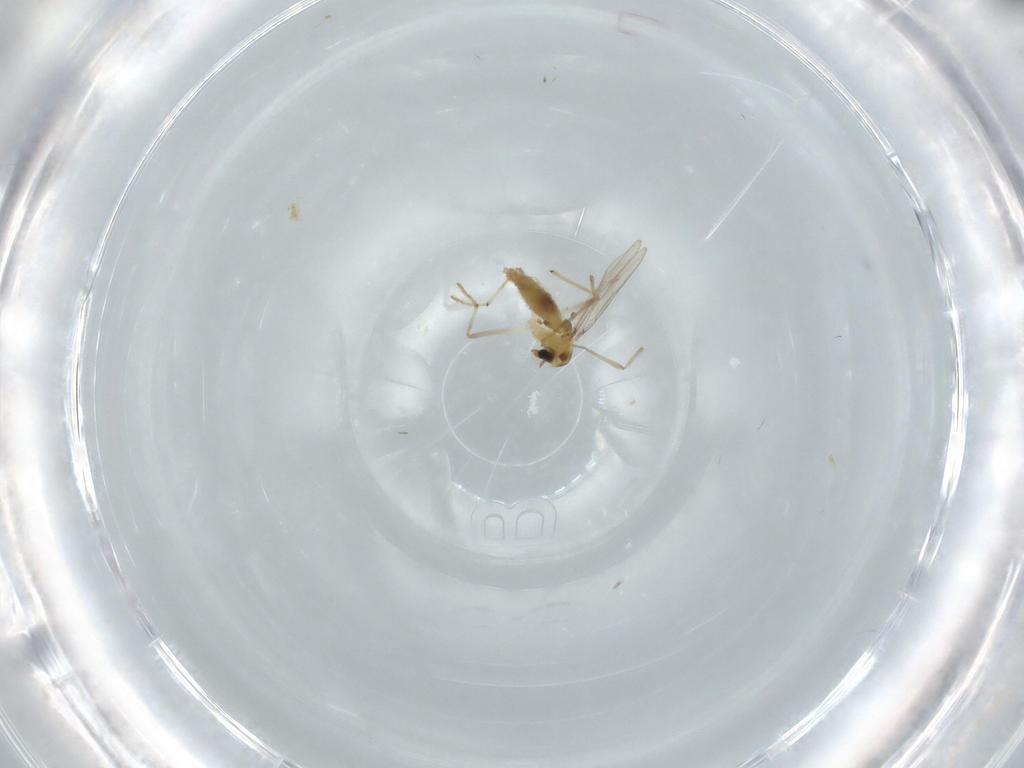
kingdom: Animalia
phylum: Arthropoda
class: Insecta
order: Diptera
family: Chironomidae
